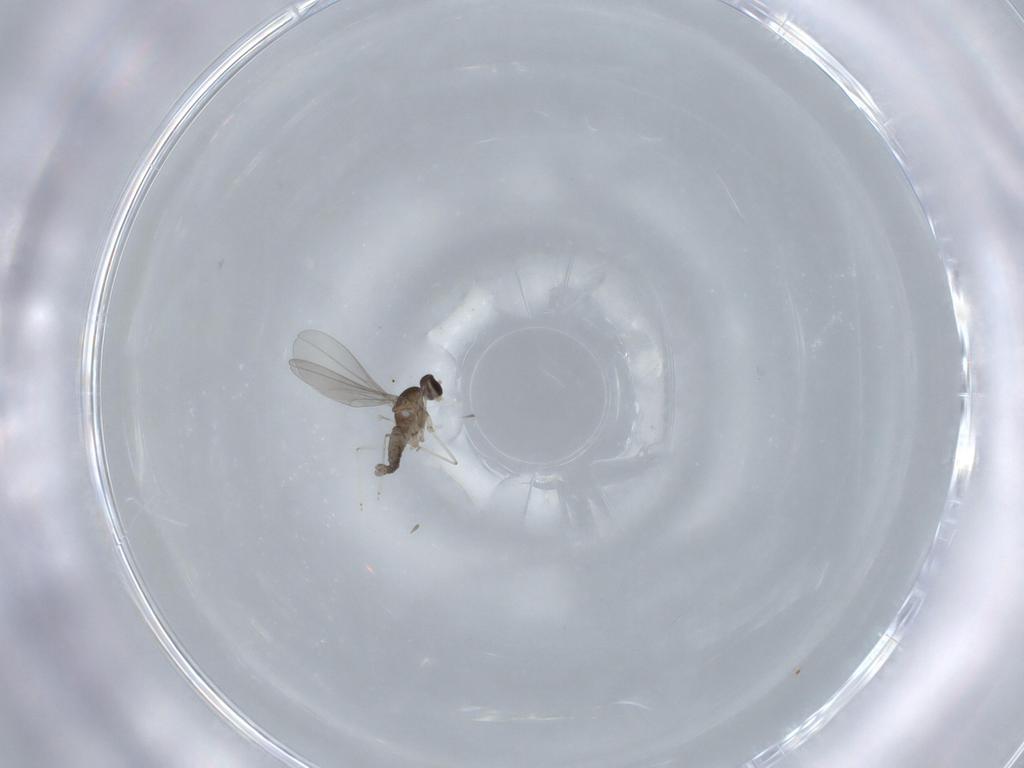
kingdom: Animalia
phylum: Arthropoda
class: Insecta
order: Diptera
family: Cecidomyiidae
